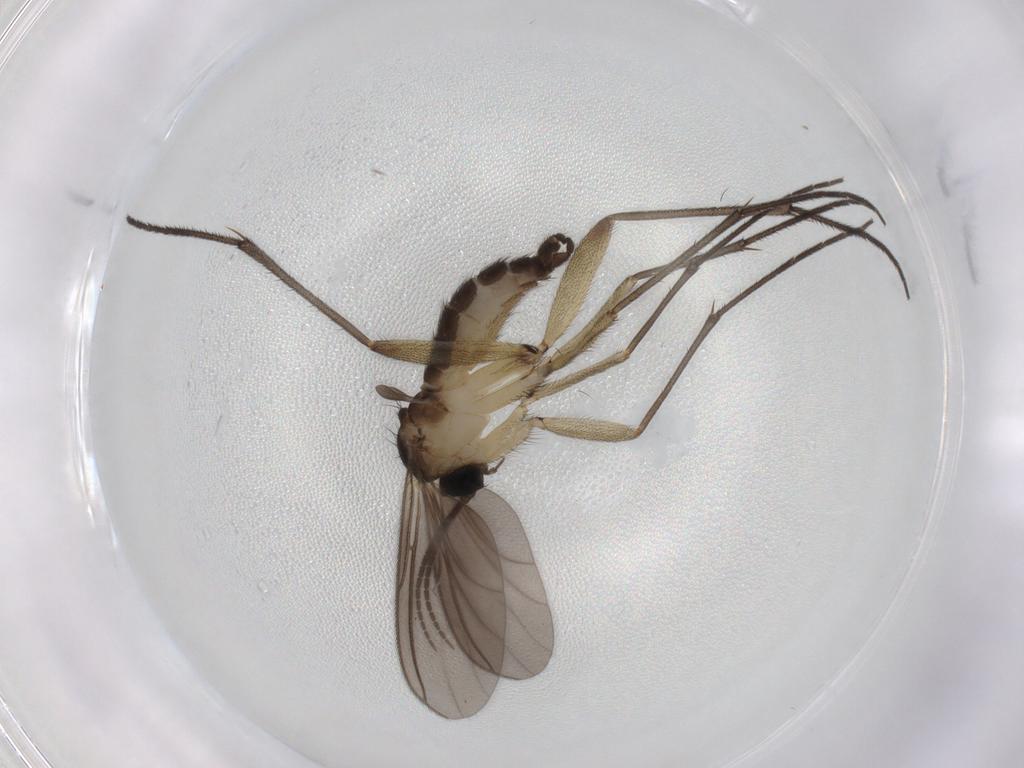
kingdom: Animalia
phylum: Arthropoda
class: Insecta
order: Diptera
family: Sciaridae
